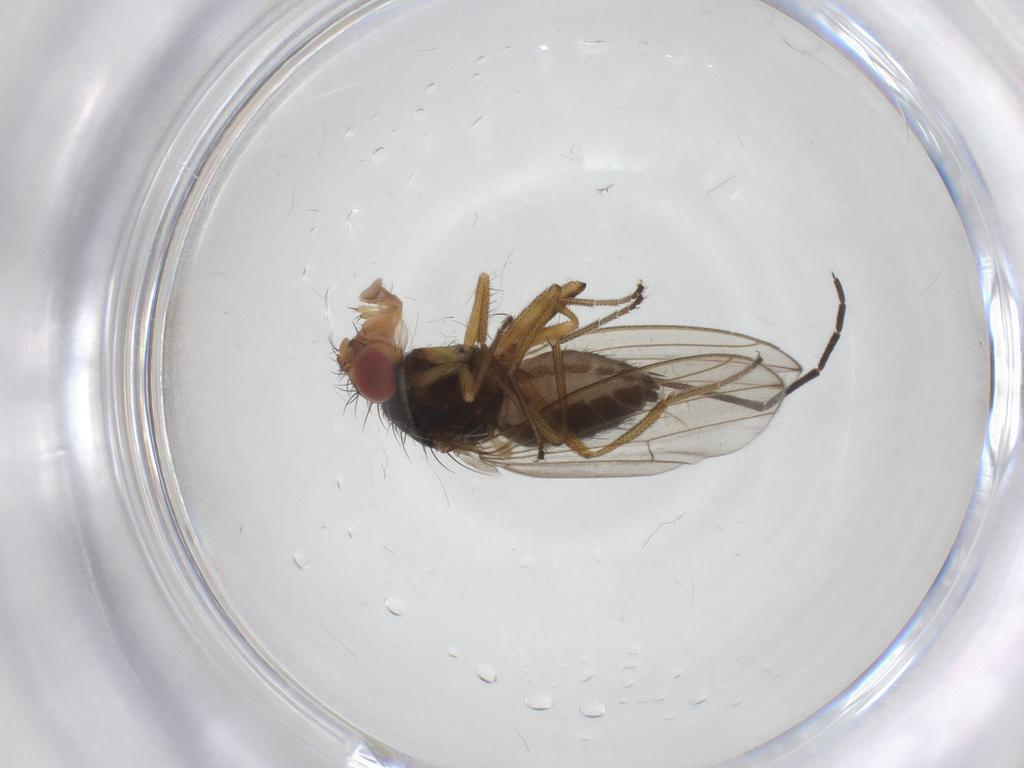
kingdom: Animalia
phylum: Arthropoda
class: Insecta
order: Diptera
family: Drosophilidae
